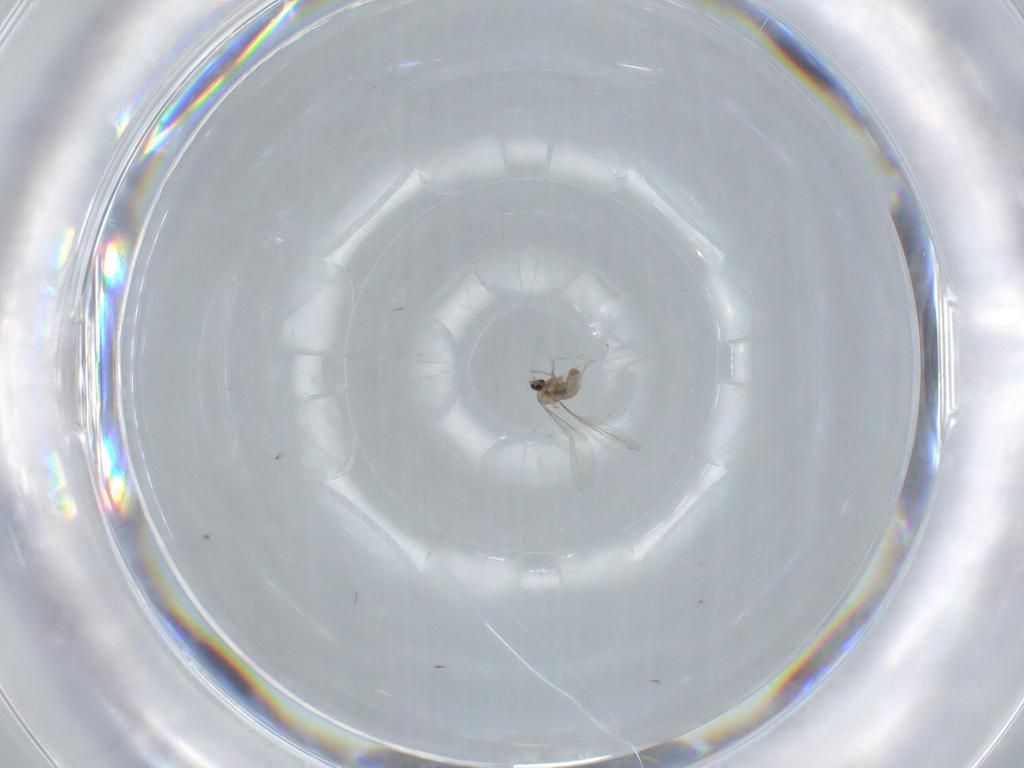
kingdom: Animalia
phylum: Arthropoda
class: Insecta
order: Diptera
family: Cecidomyiidae
